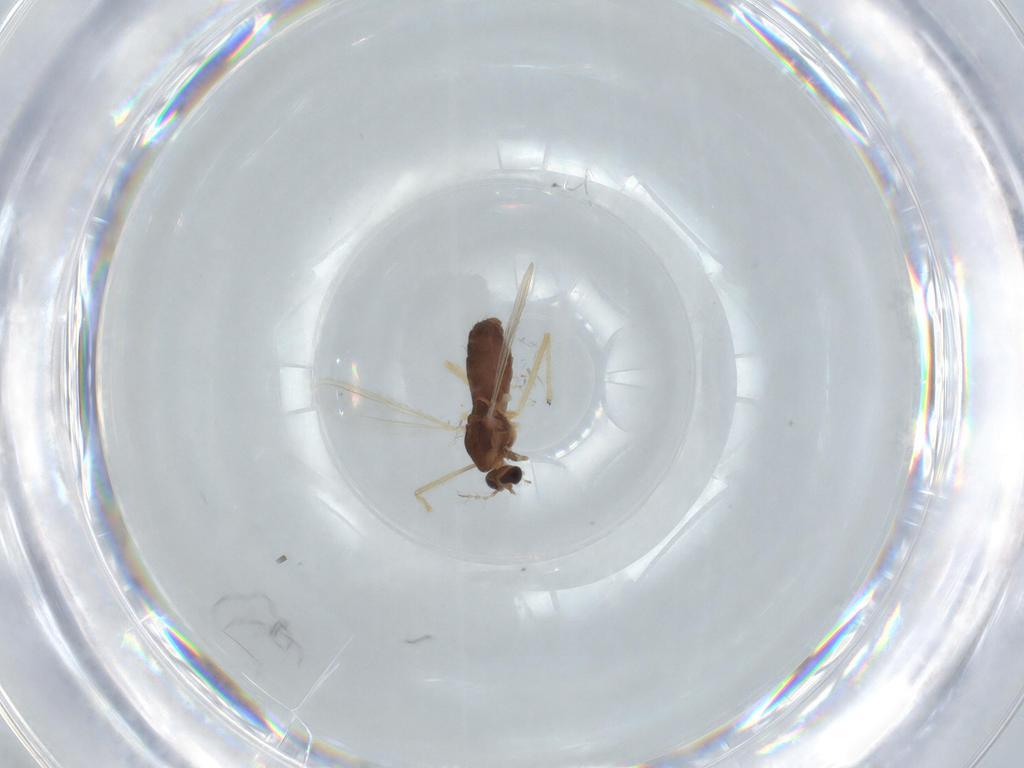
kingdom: Animalia
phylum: Arthropoda
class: Insecta
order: Diptera
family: Chironomidae
